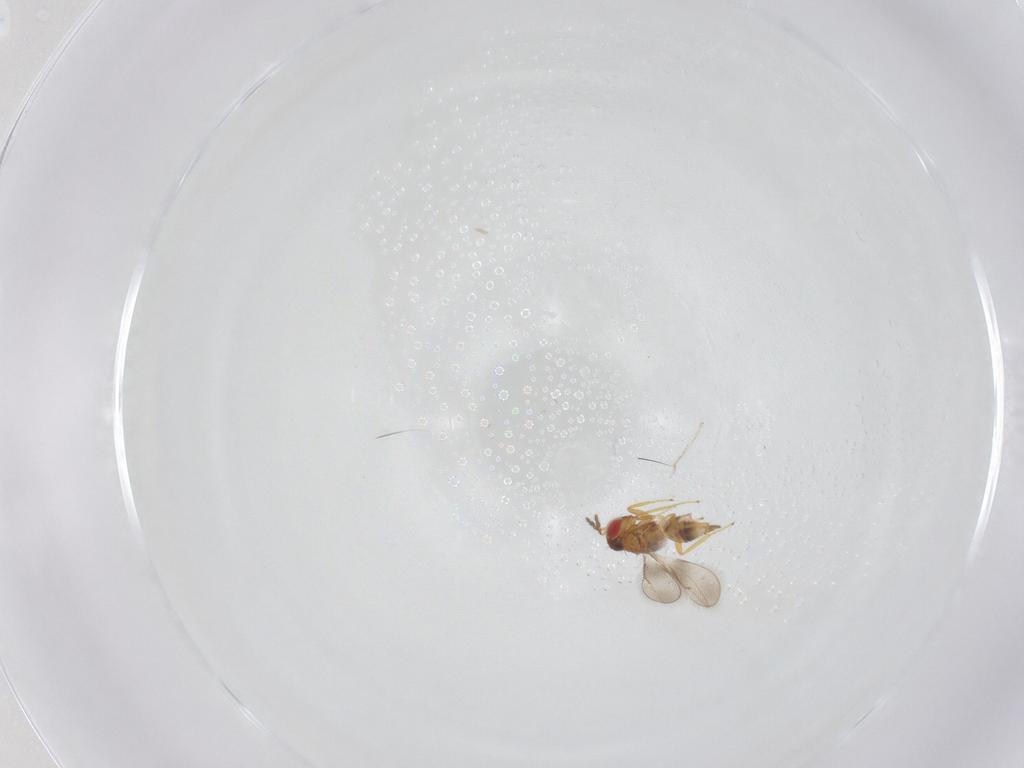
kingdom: Animalia
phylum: Arthropoda
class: Insecta
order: Hymenoptera
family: Eulophidae
